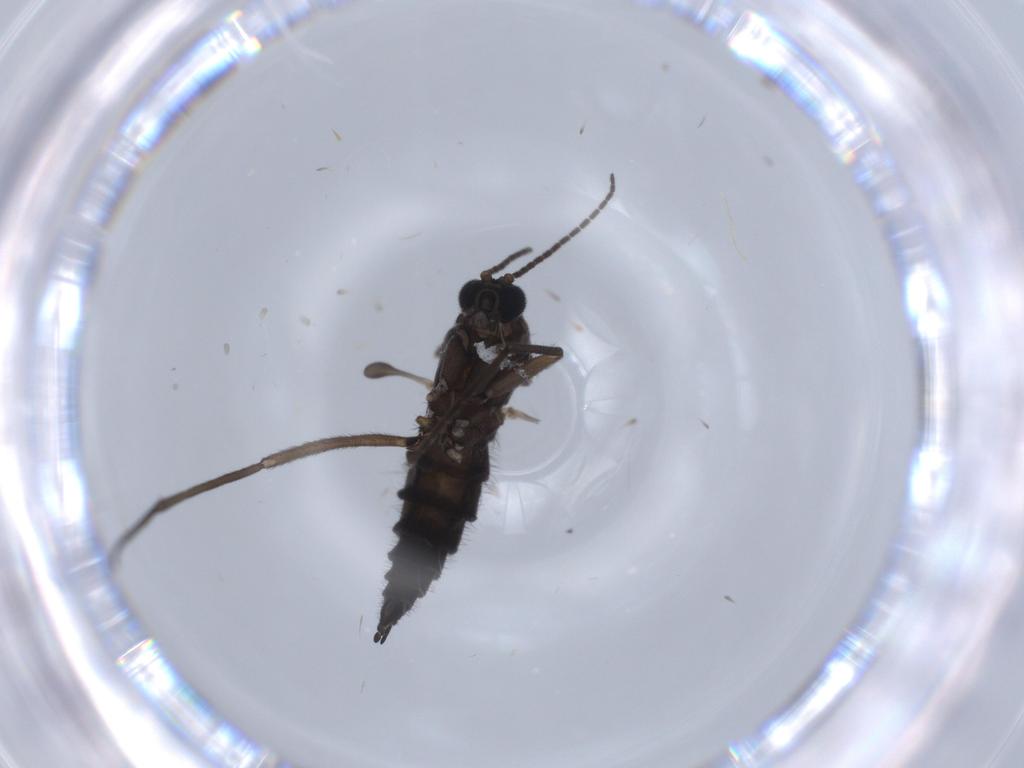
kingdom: Animalia
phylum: Arthropoda
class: Insecta
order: Diptera
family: Sciaridae
